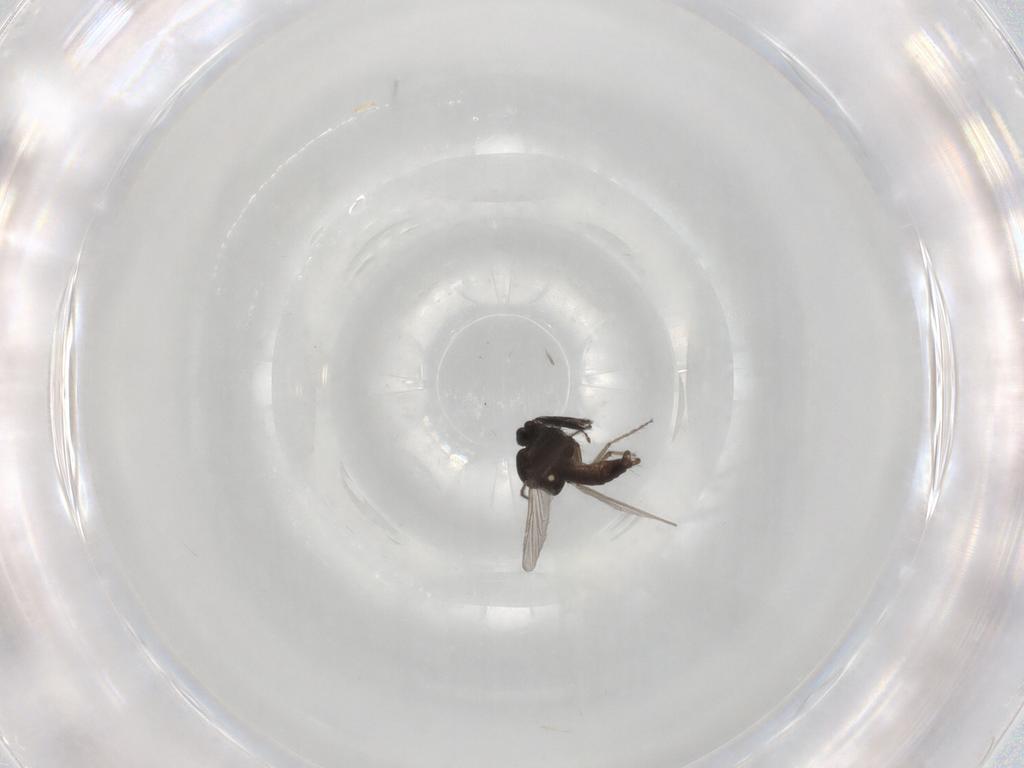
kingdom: Animalia
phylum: Arthropoda
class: Insecta
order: Diptera
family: Ceratopogonidae
